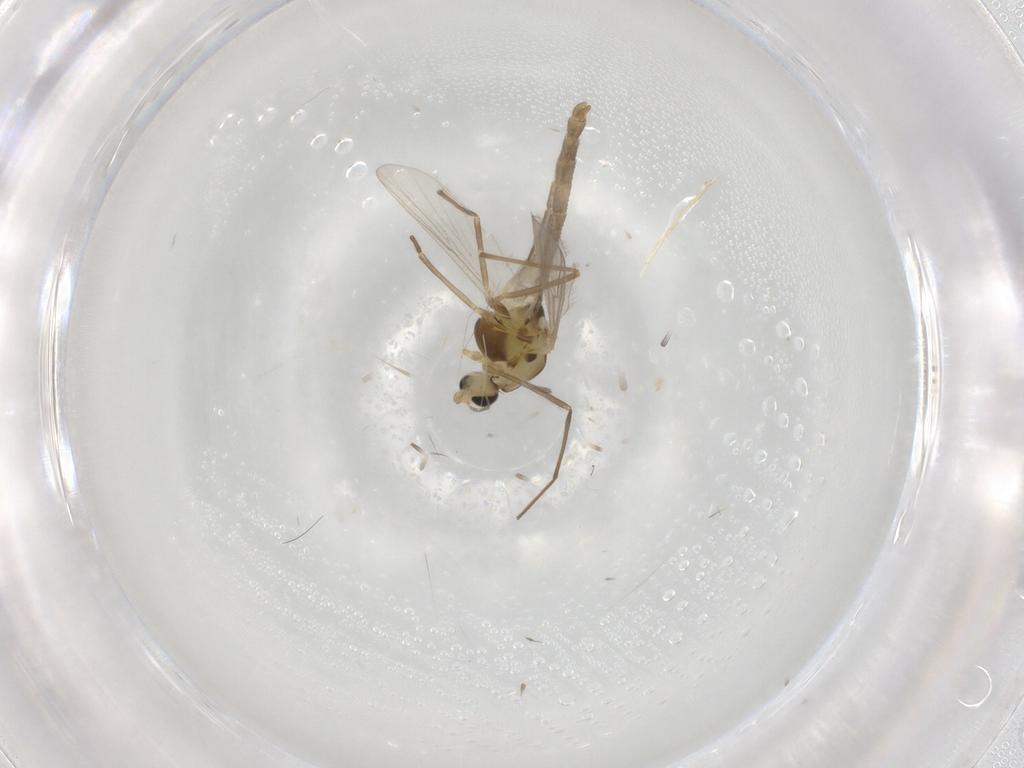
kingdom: Animalia
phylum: Arthropoda
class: Insecta
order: Diptera
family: Chironomidae
